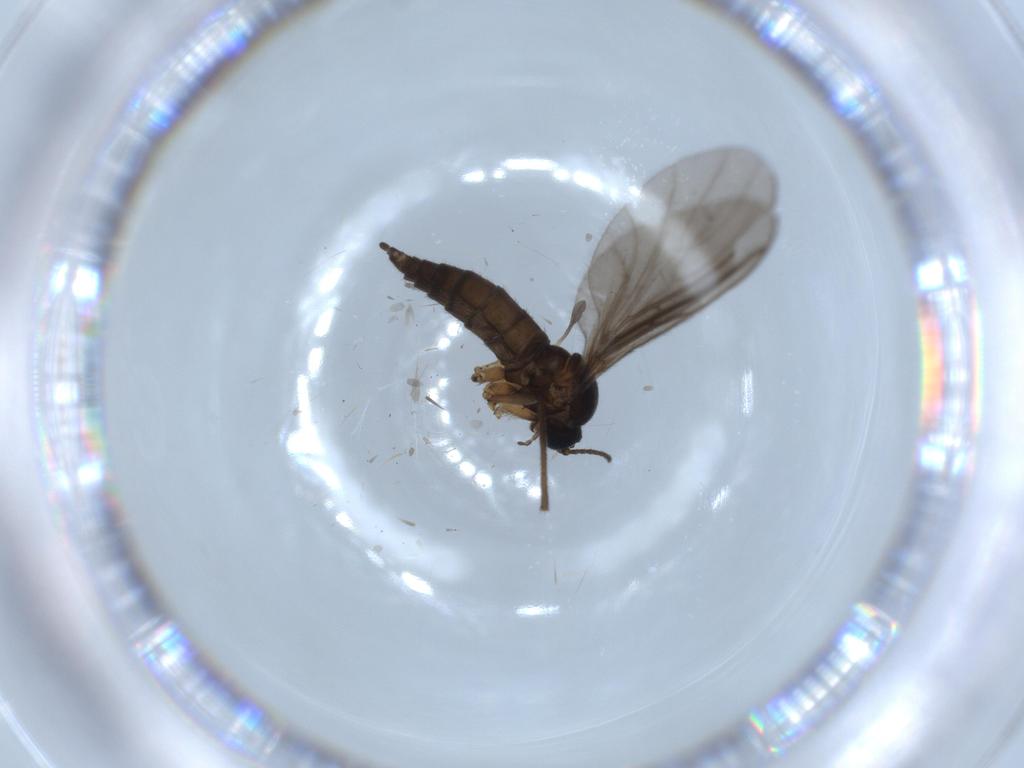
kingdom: Animalia
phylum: Arthropoda
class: Insecta
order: Diptera
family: Sciaridae
